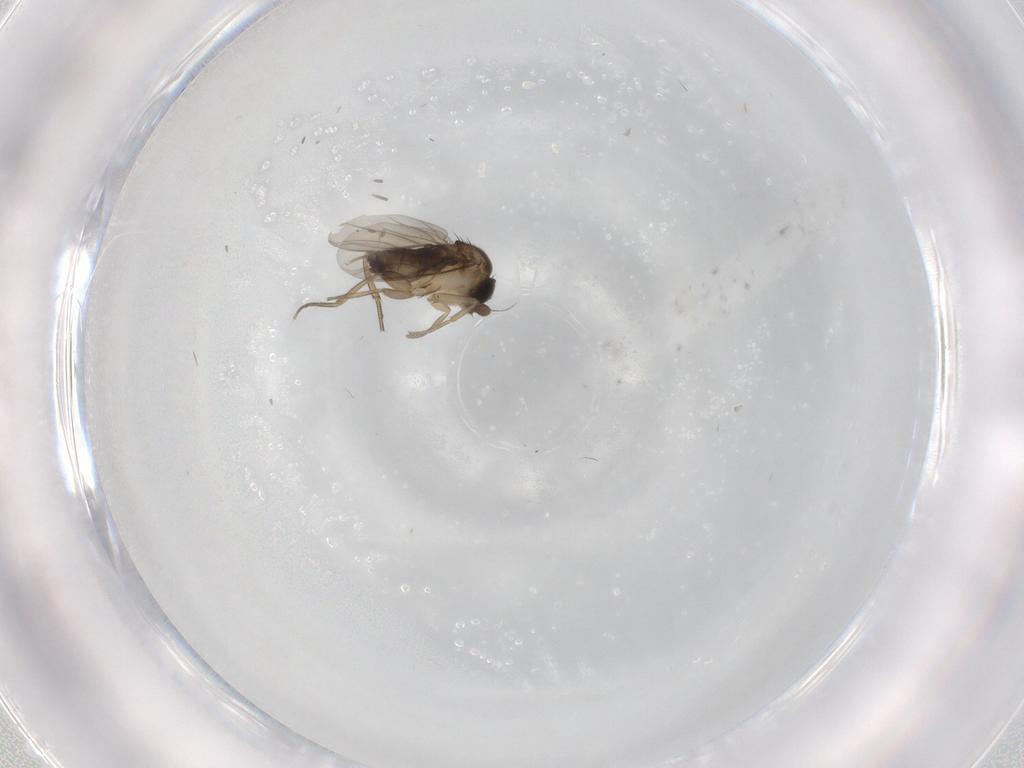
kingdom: Animalia
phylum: Arthropoda
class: Insecta
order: Diptera
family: Phoridae
